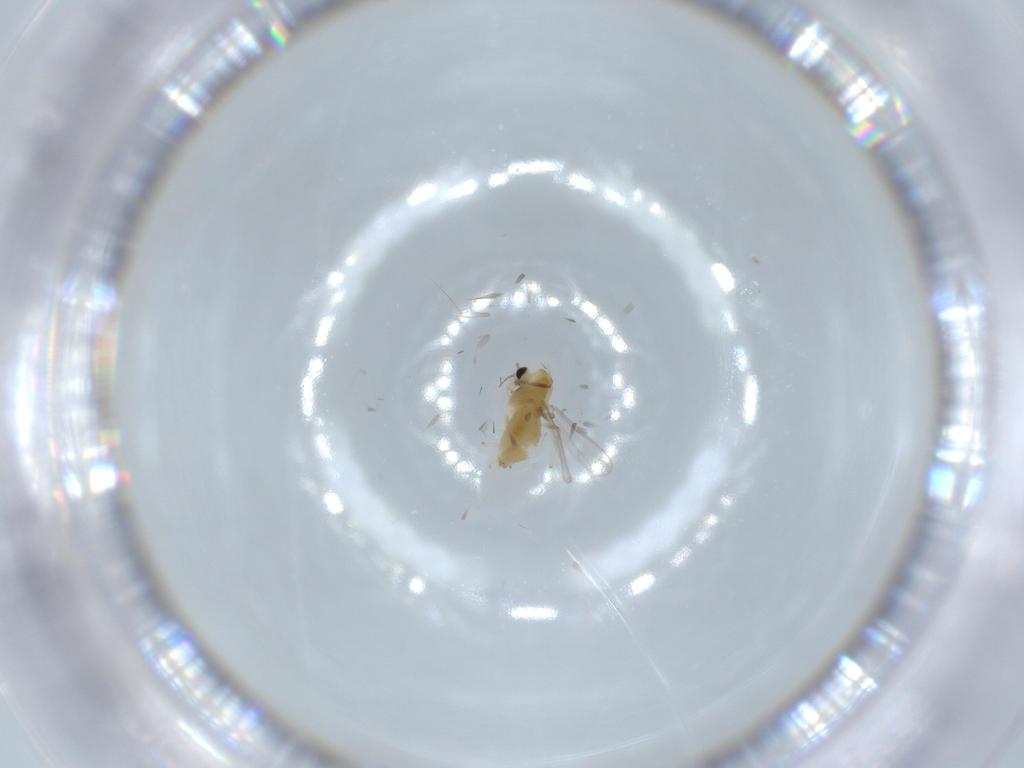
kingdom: Animalia
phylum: Arthropoda
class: Insecta
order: Diptera
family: Chironomidae
